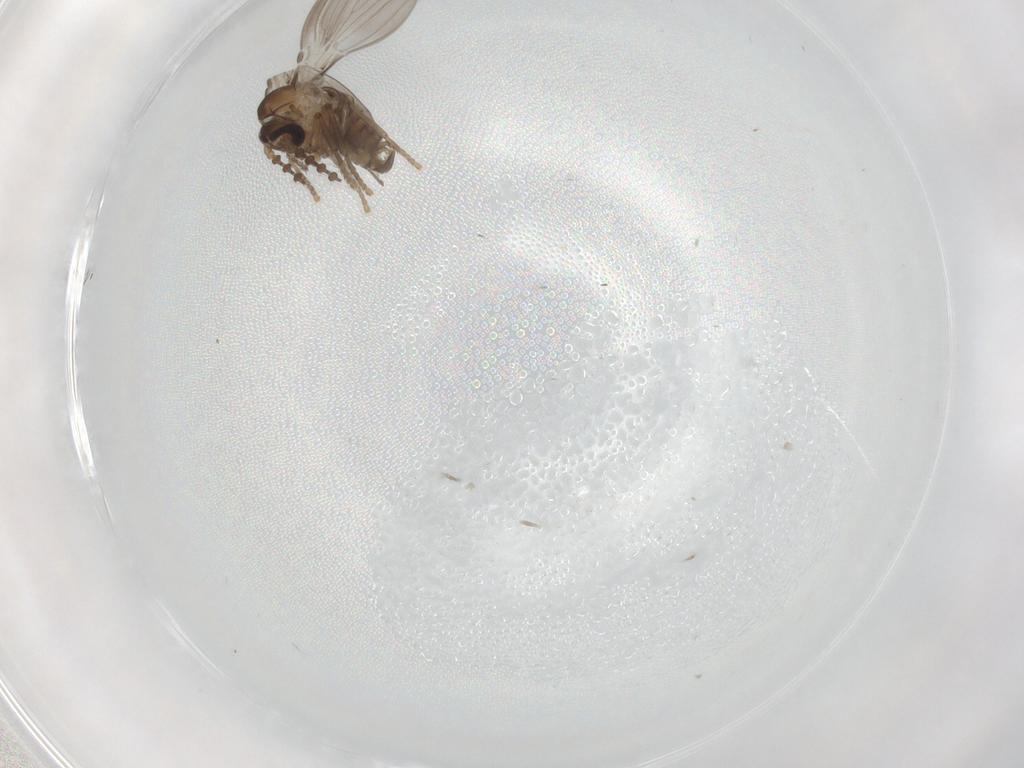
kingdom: Animalia
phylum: Arthropoda
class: Insecta
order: Diptera
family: Psychodidae
